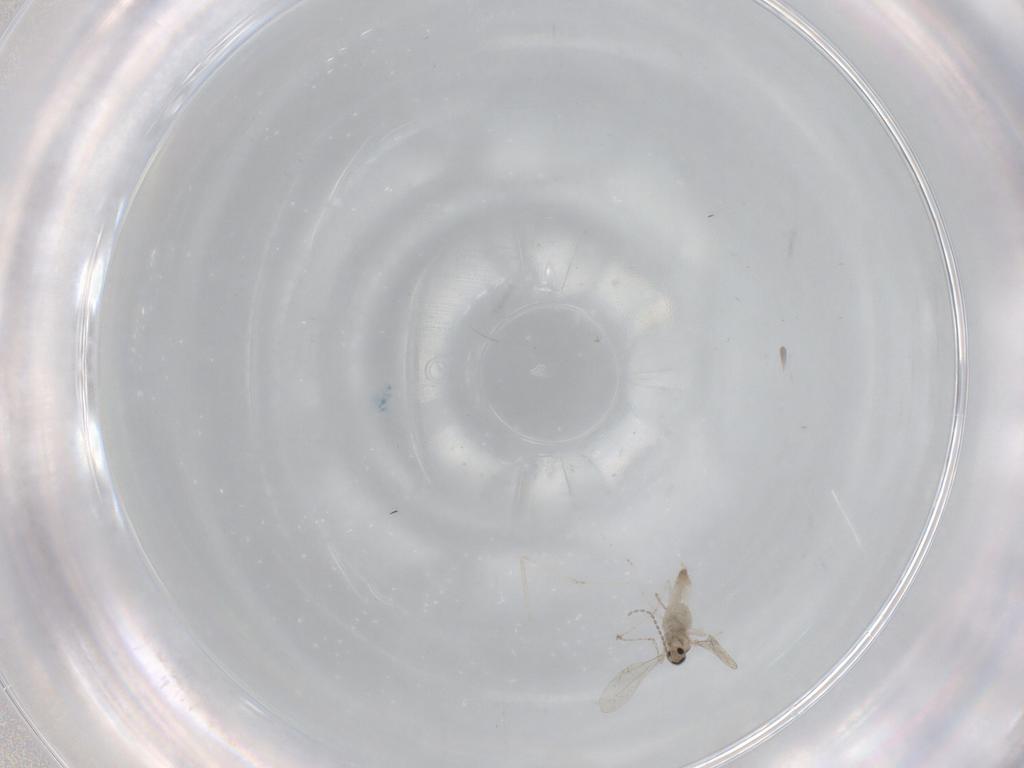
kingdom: Animalia
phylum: Arthropoda
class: Insecta
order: Diptera
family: Cecidomyiidae
